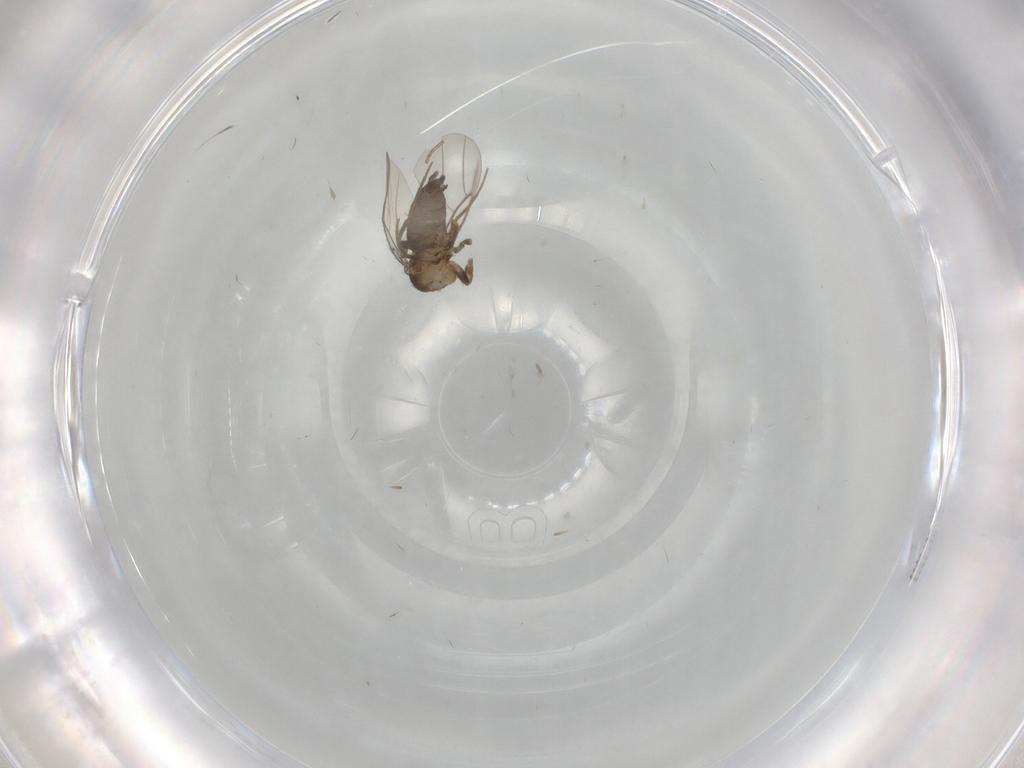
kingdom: Animalia
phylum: Arthropoda
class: Insecta
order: Diptera
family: Phoridae
